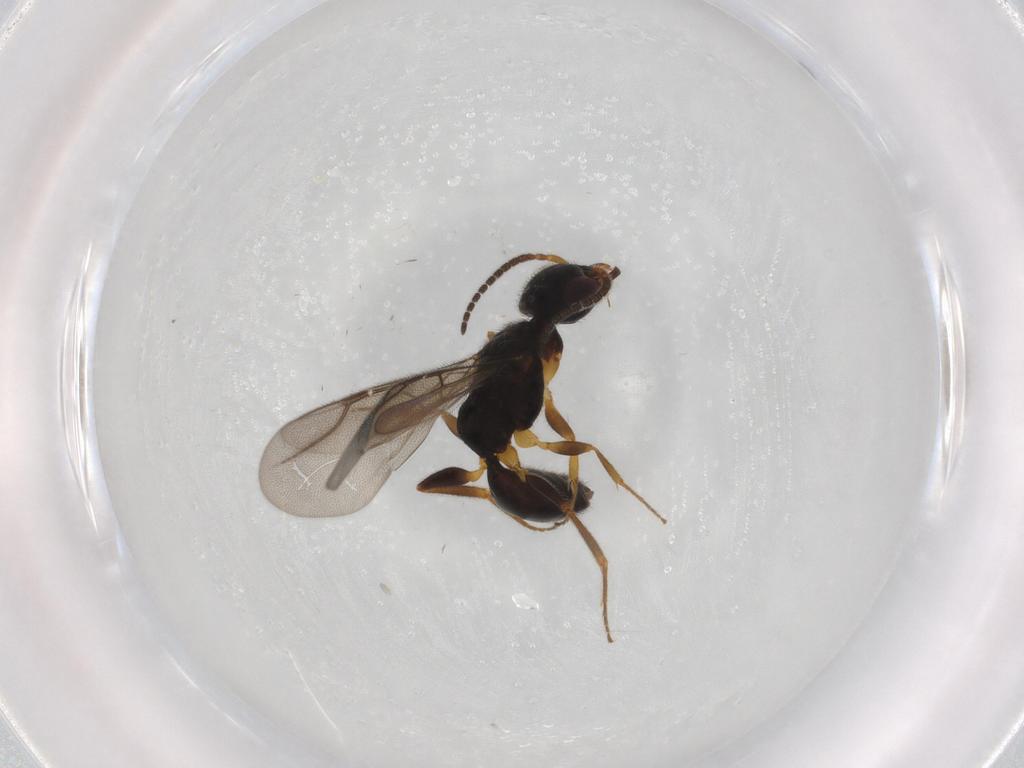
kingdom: Animalia
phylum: Arthropoda
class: Insecta
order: Hymenoptera
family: Bethylidae
